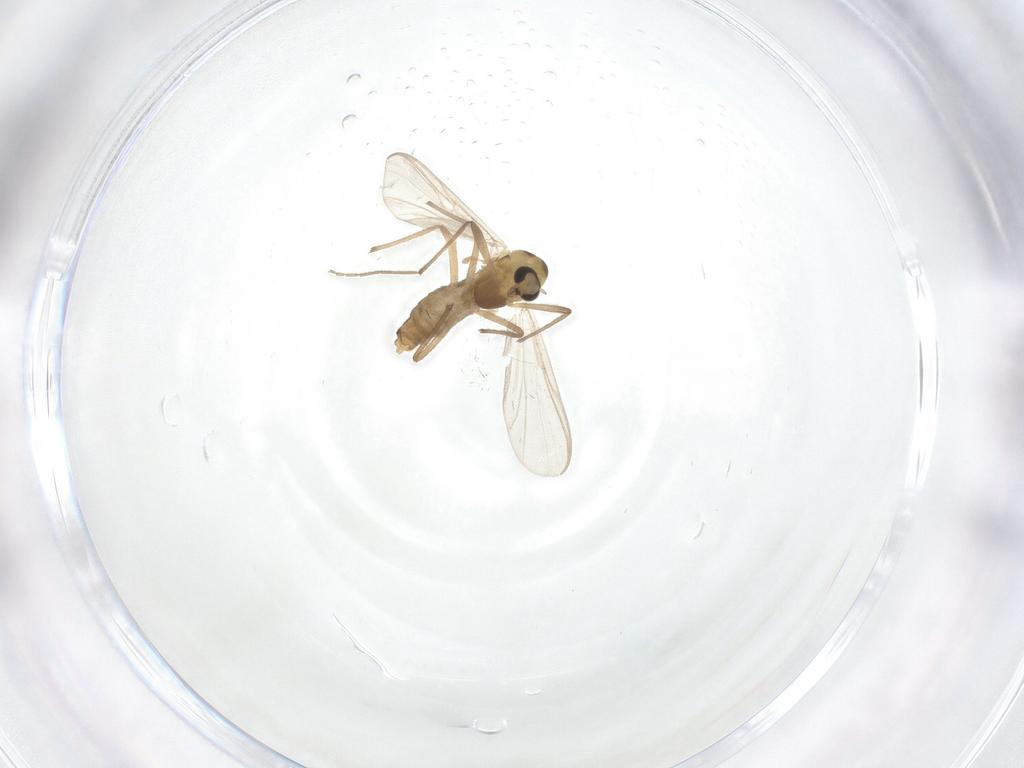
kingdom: Animalia
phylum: Arthropoda
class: Insecta
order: Diptera
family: Chironomidae
